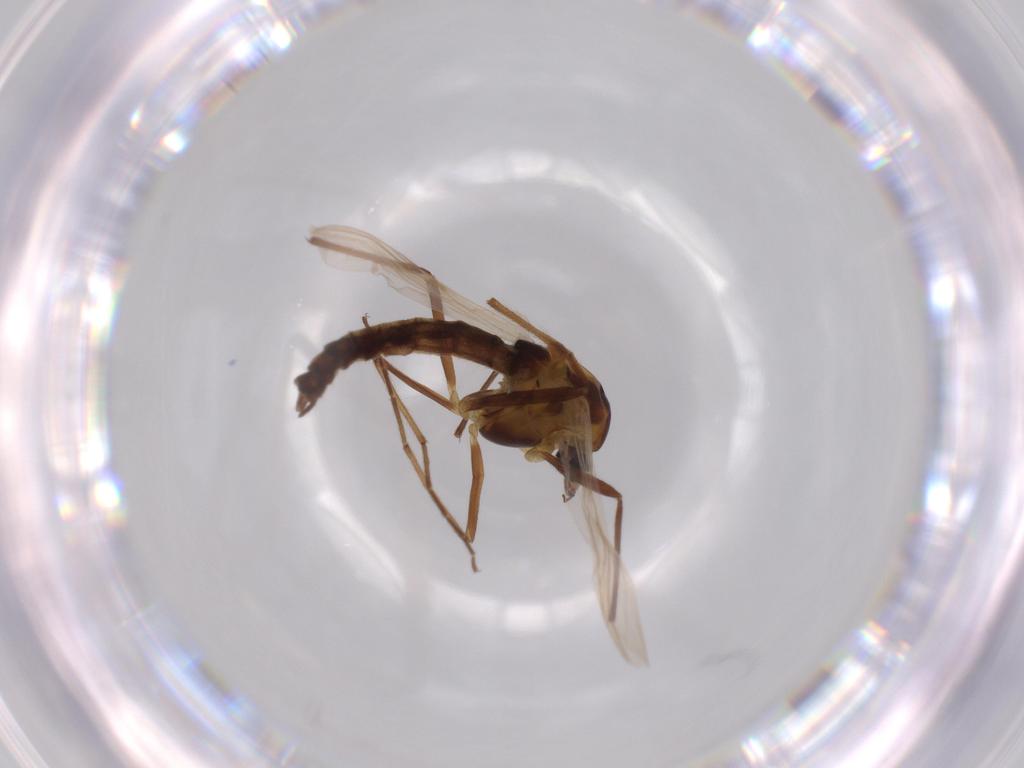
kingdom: Animalia
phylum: Arthropoda
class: Insecta
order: Diptera
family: Chironomidae
